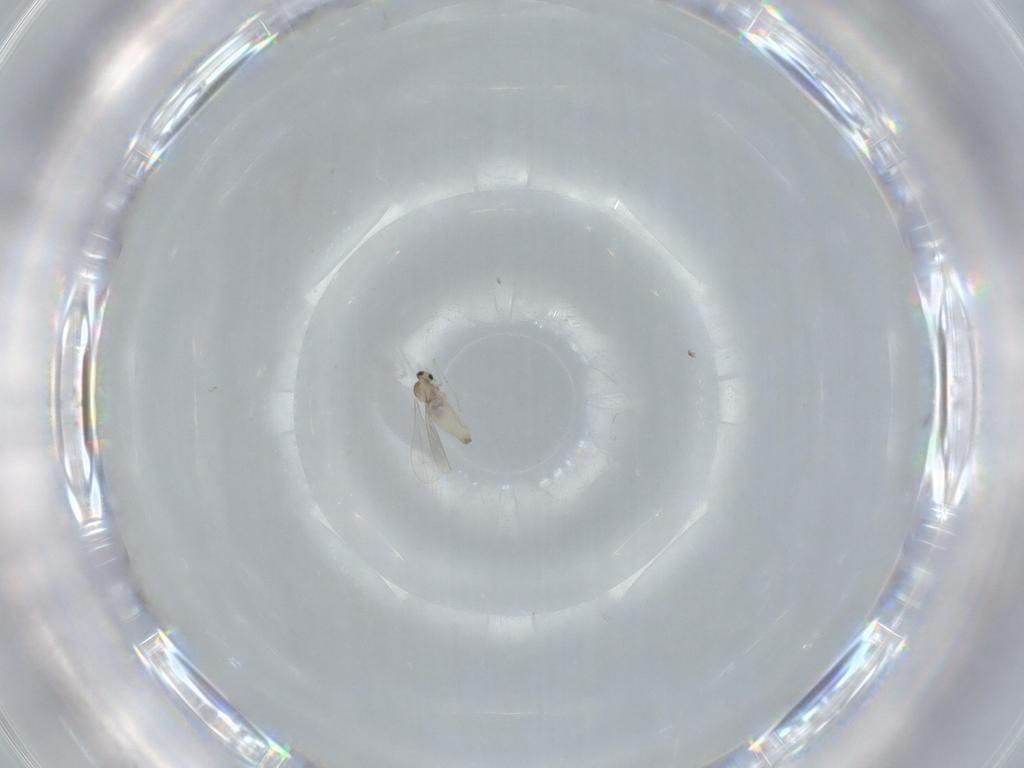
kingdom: Animalia
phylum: Arthropoda
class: Insecta
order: Diptera
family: Cecidomyiidae
